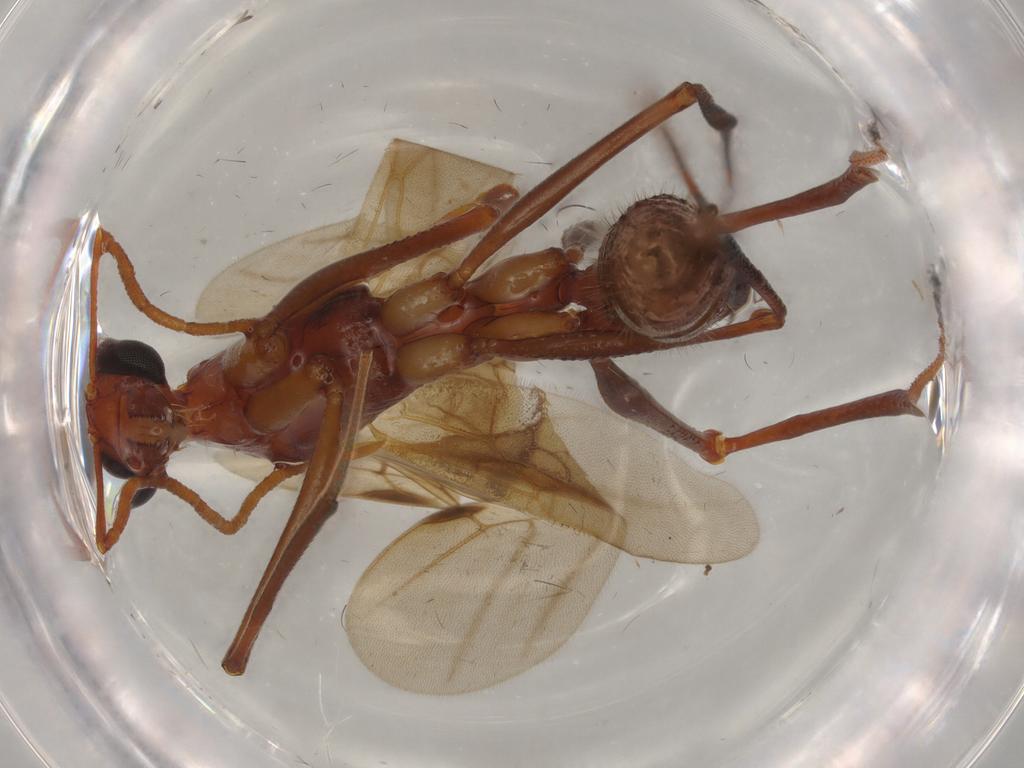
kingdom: Animalia
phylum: Arthropoda
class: Insecta
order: Hymenoptera
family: Formicidae
